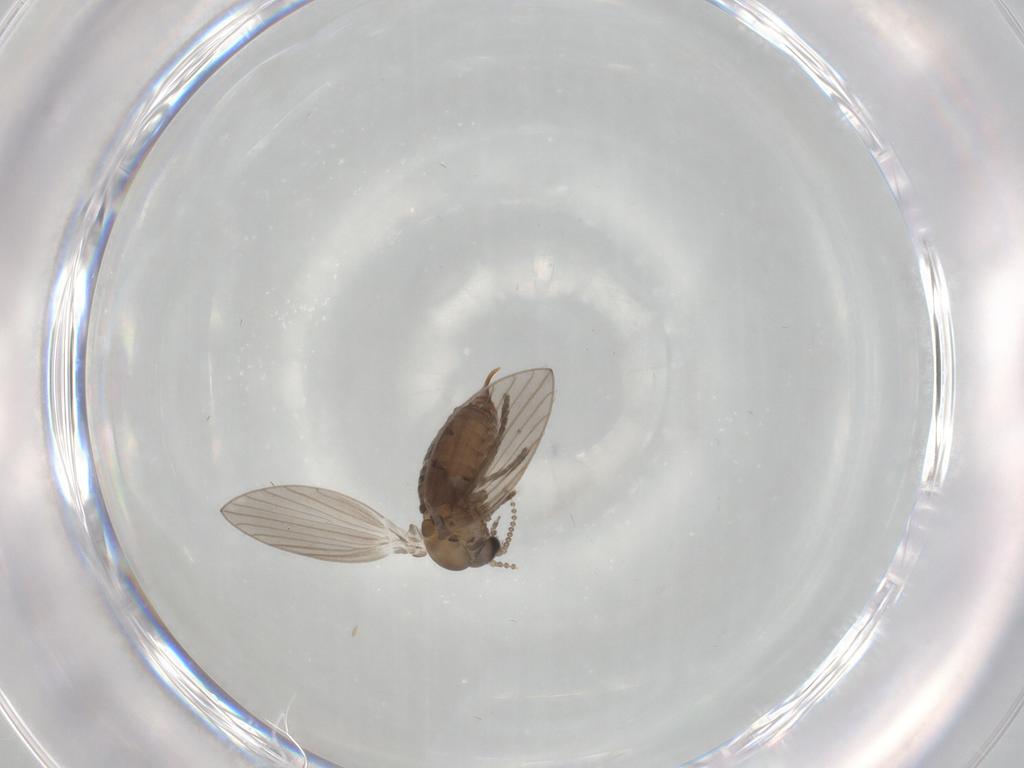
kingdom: Animalia
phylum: Arthropoda
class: Insecta
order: Diptera
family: Psychodidae
